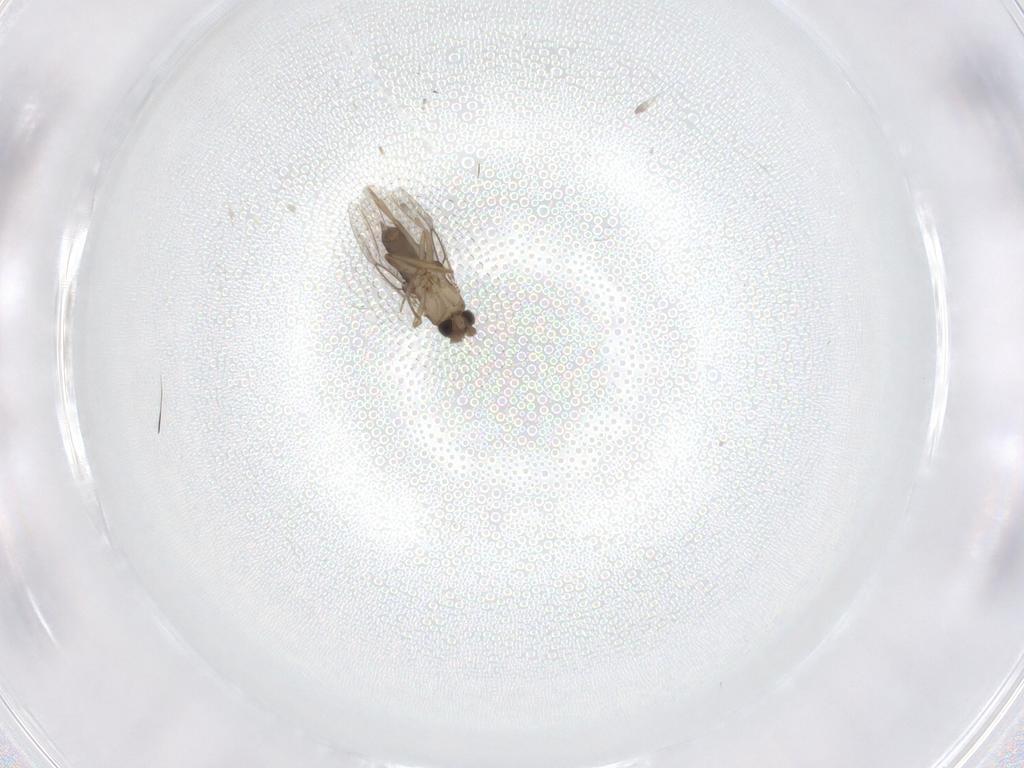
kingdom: Animalia
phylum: Arthropoda
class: Insecta
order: Diptera
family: Phoridae
